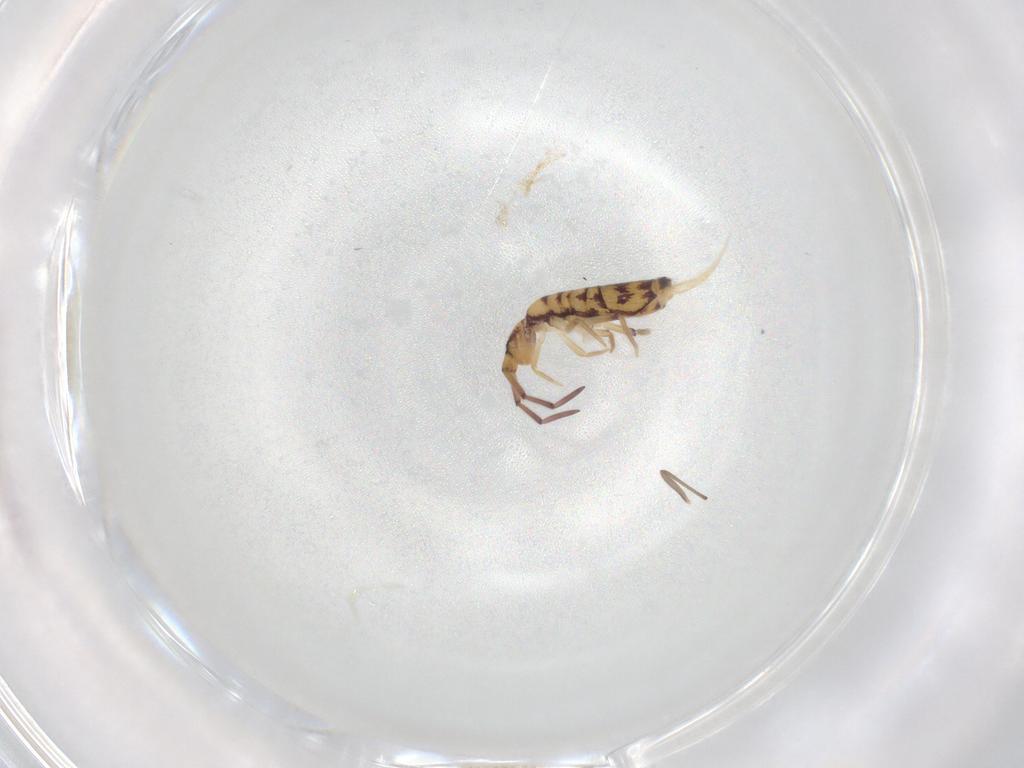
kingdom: Animalia
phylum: Arthropoda
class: Collembola
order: Entomobryomorpha
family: Entomobryidae
